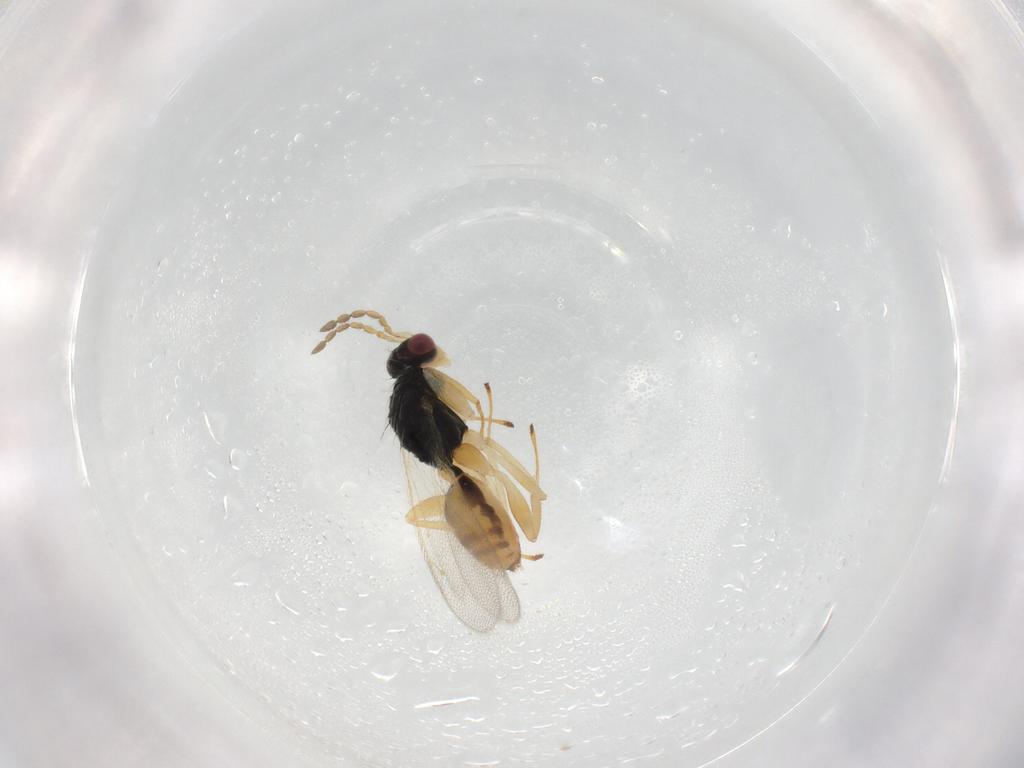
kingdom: Animalia
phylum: Arthropoda
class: Insecta
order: Hymenoptera
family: Eulophidae
